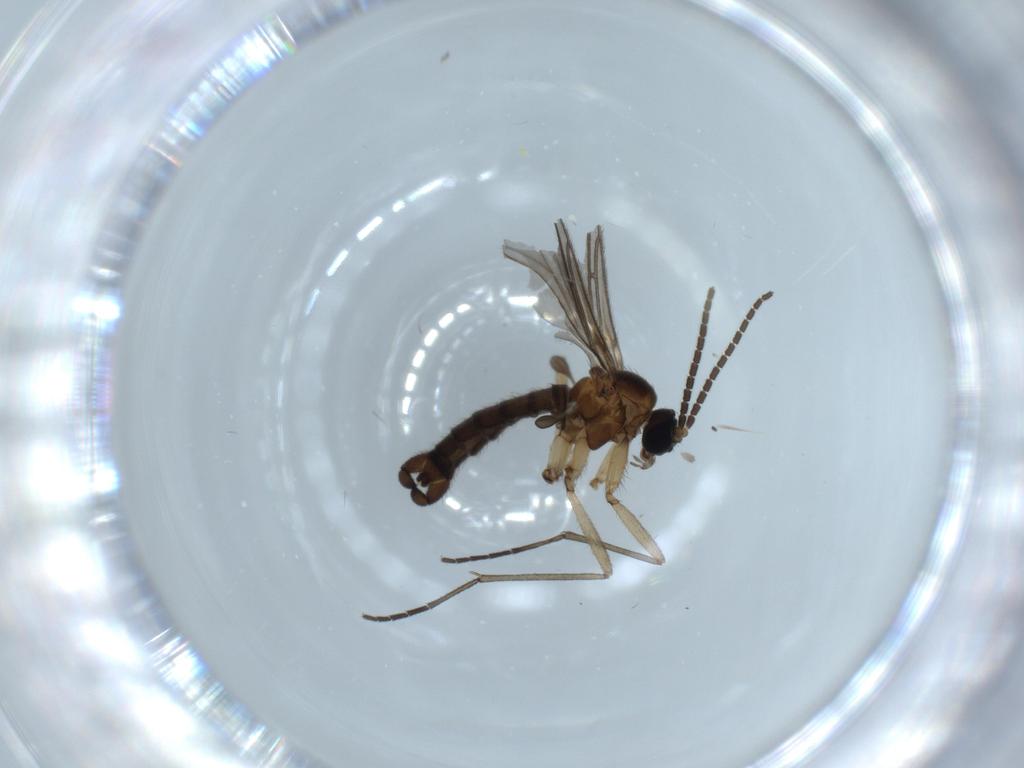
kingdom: Animalia
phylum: Arthropoda
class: Insecta
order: Diptera
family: Sciaridae
